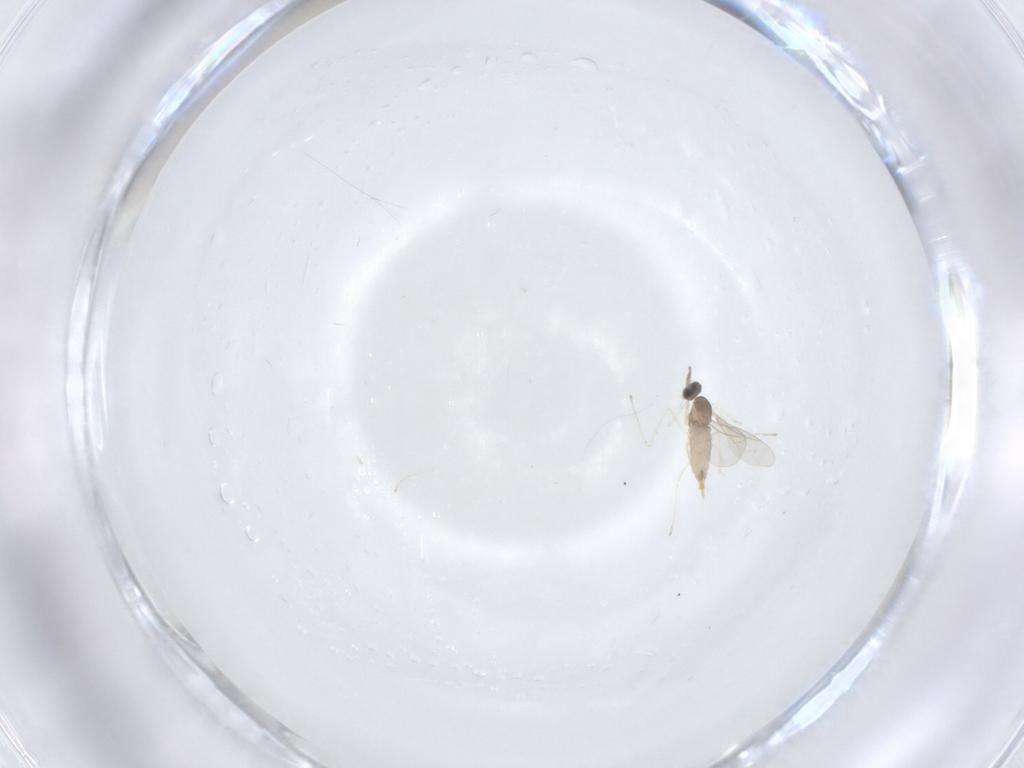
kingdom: Animalia
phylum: Arthropoda
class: Insecta
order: Diptera
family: Cecidomyiidae
